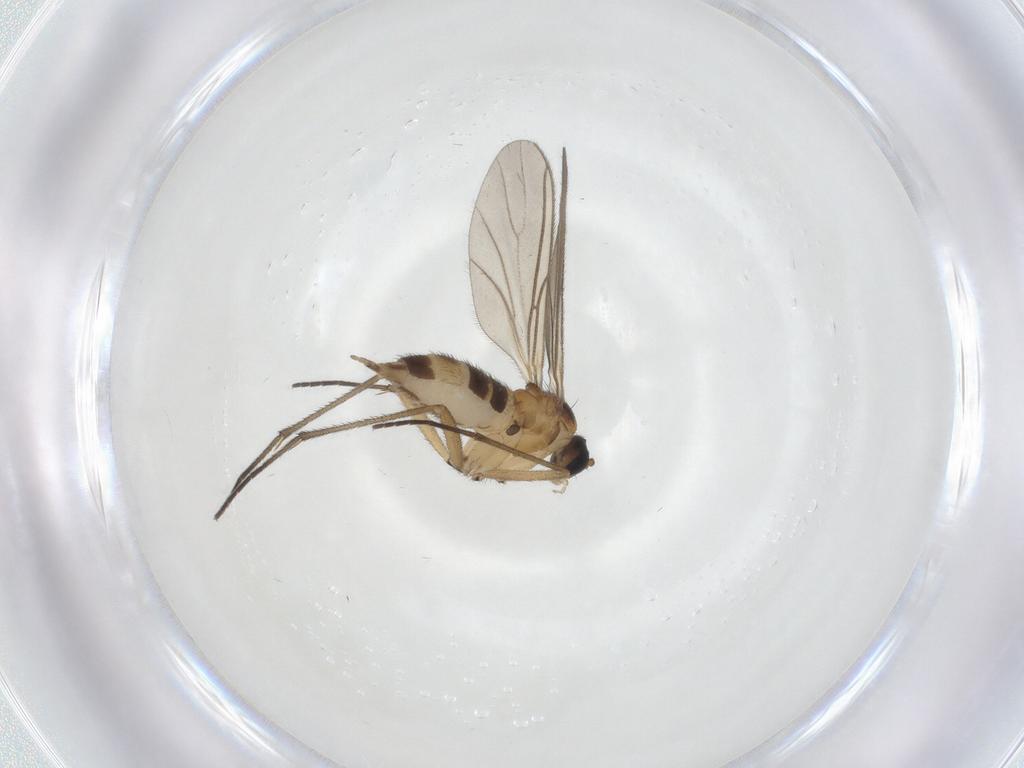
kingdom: Animalia
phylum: Arthropoda
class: Insecta
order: Diptera
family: Sciaridae
